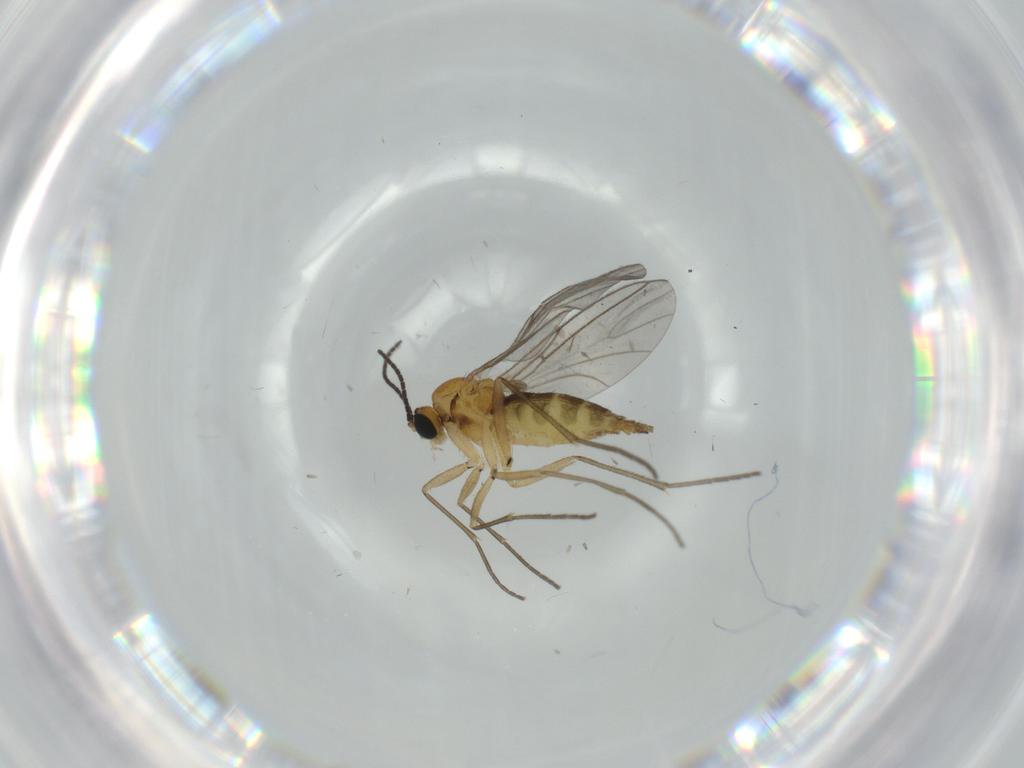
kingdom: Animalia
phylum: Arthropoda
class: Insecta
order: Diptera
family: Sciaridae
